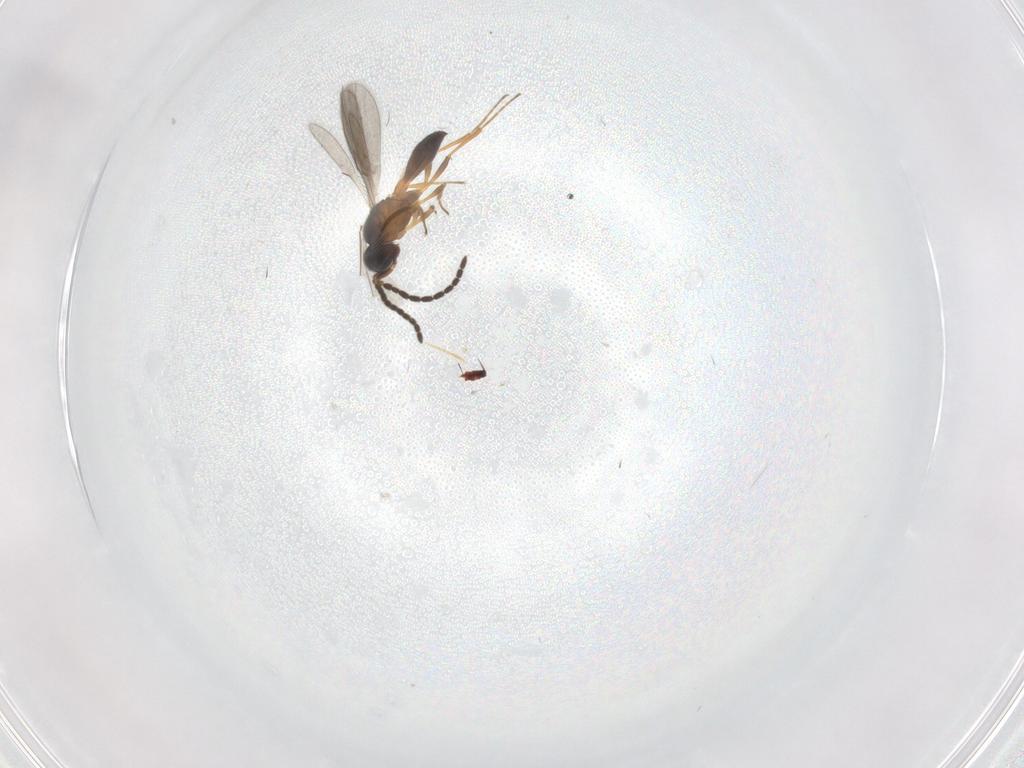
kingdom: Animalia
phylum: Arthropoda
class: Insecta
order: Hymenoptera
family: Scelionidae
